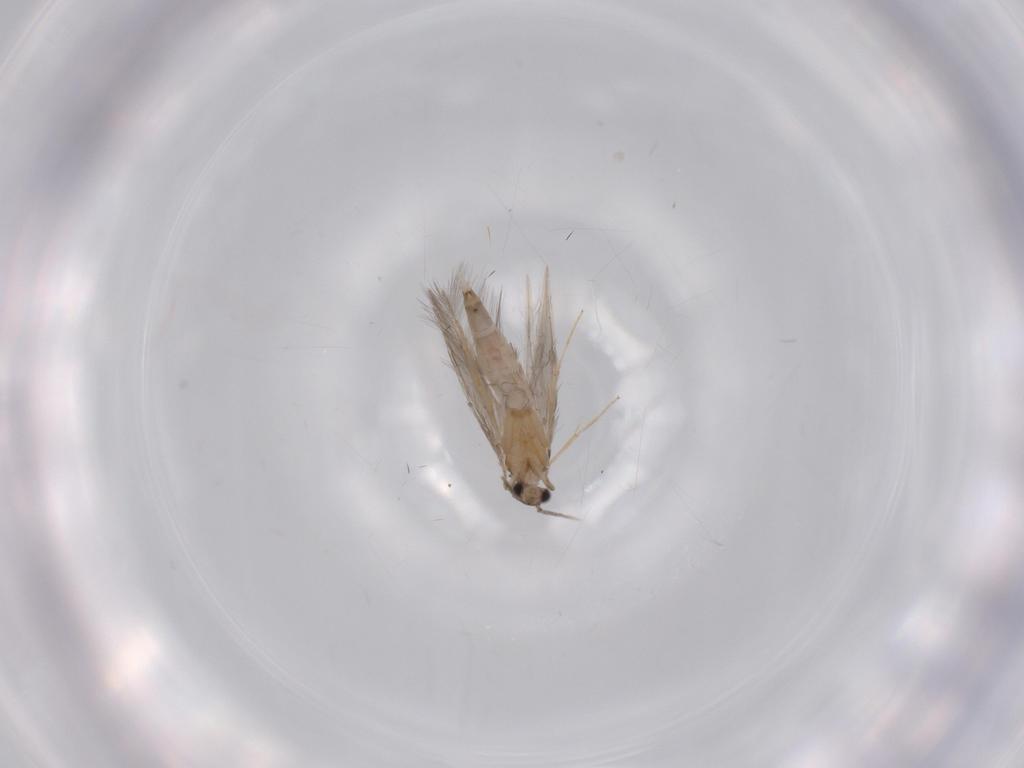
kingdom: Animalia
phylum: Arthropoda
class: Insecta
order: Trichoptera
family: Hydroptilidae
